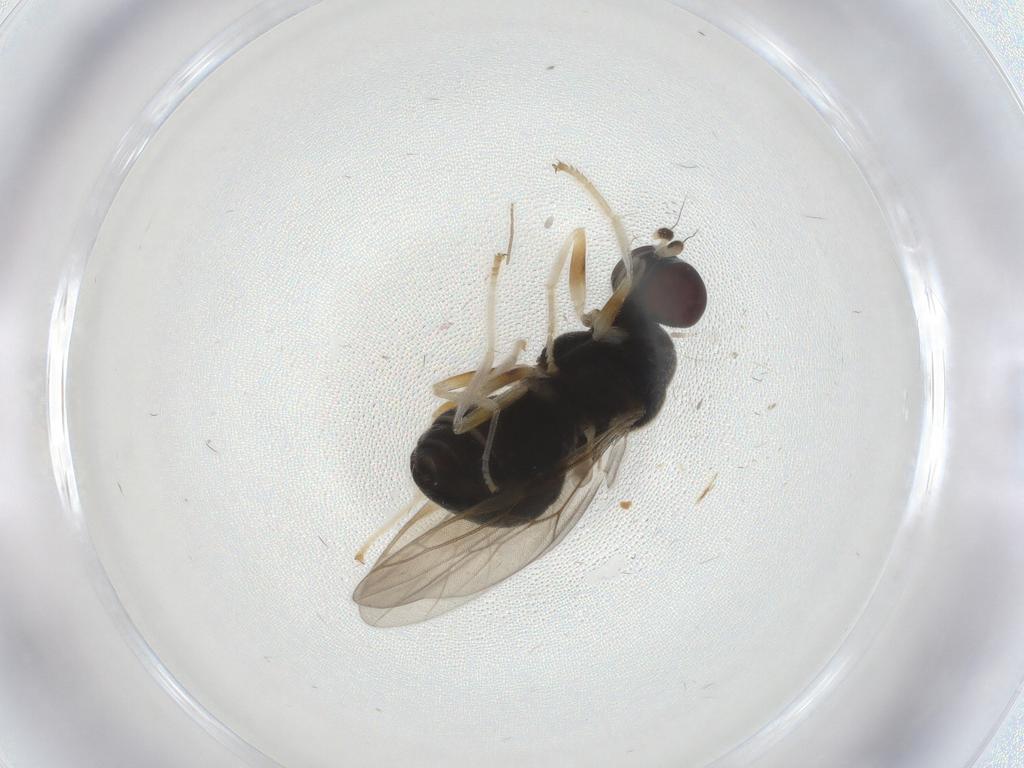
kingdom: Animalia
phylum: Arthropoda
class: Insecta
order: Diptera
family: Stratiomyidae
